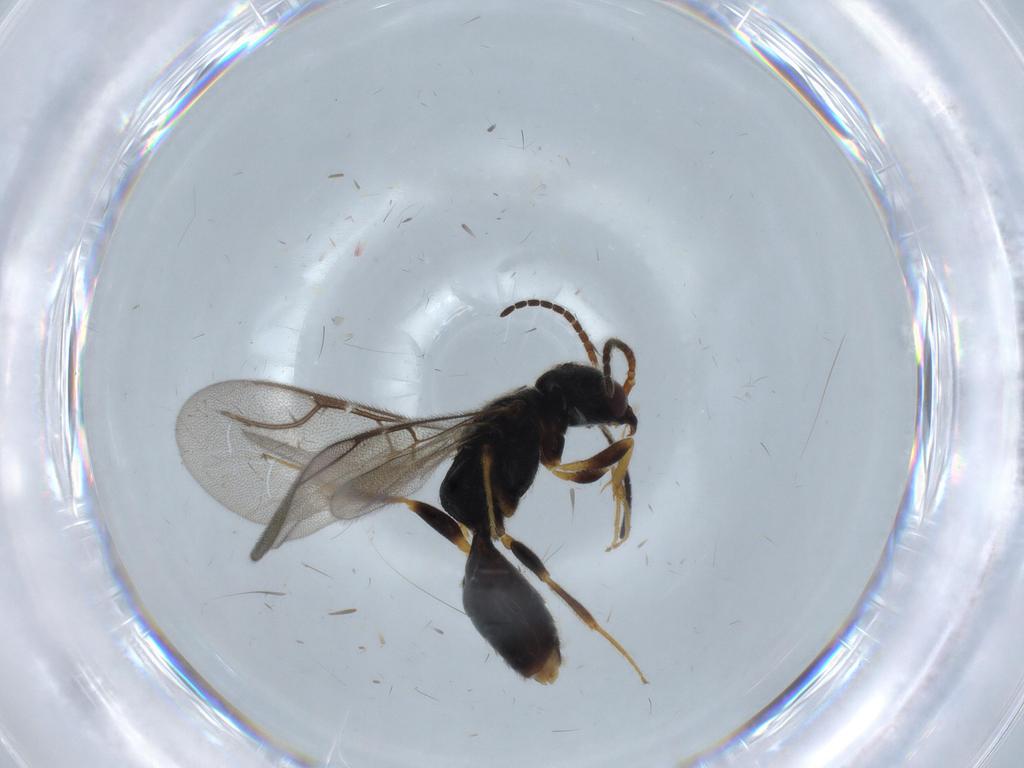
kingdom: Animalia
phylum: Arthropoda
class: Insecta
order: Hymenoptera
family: Bethylidae
